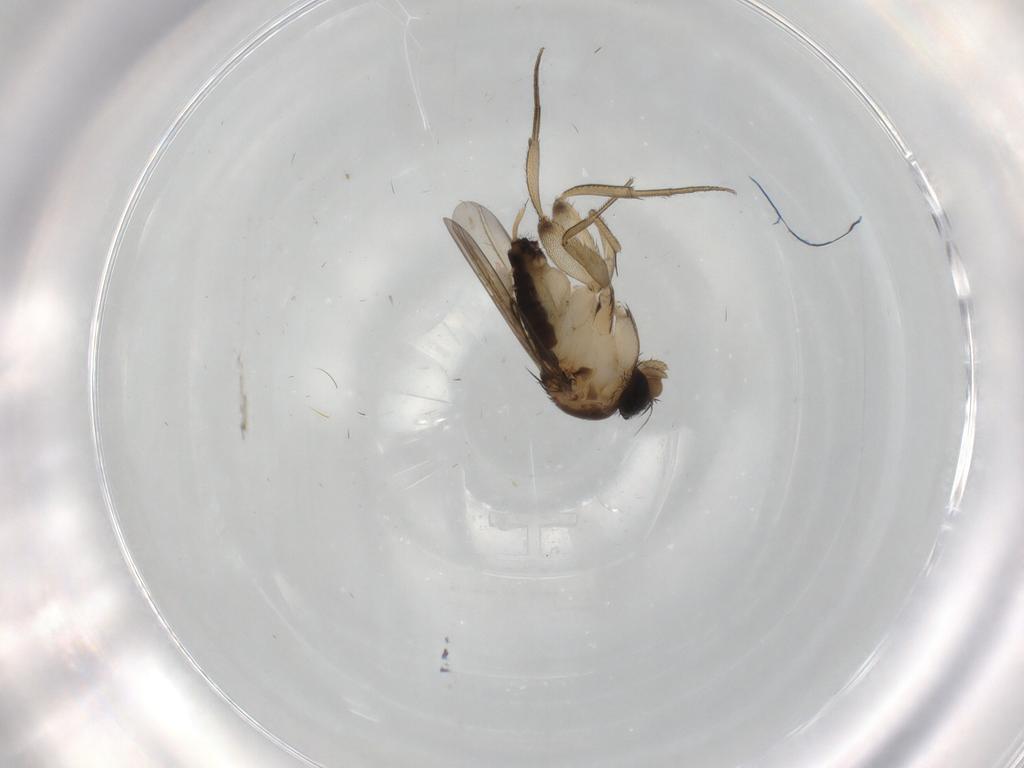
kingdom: Animalia
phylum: Arthropoda
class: Insecta
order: Diptera
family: Phoridae
